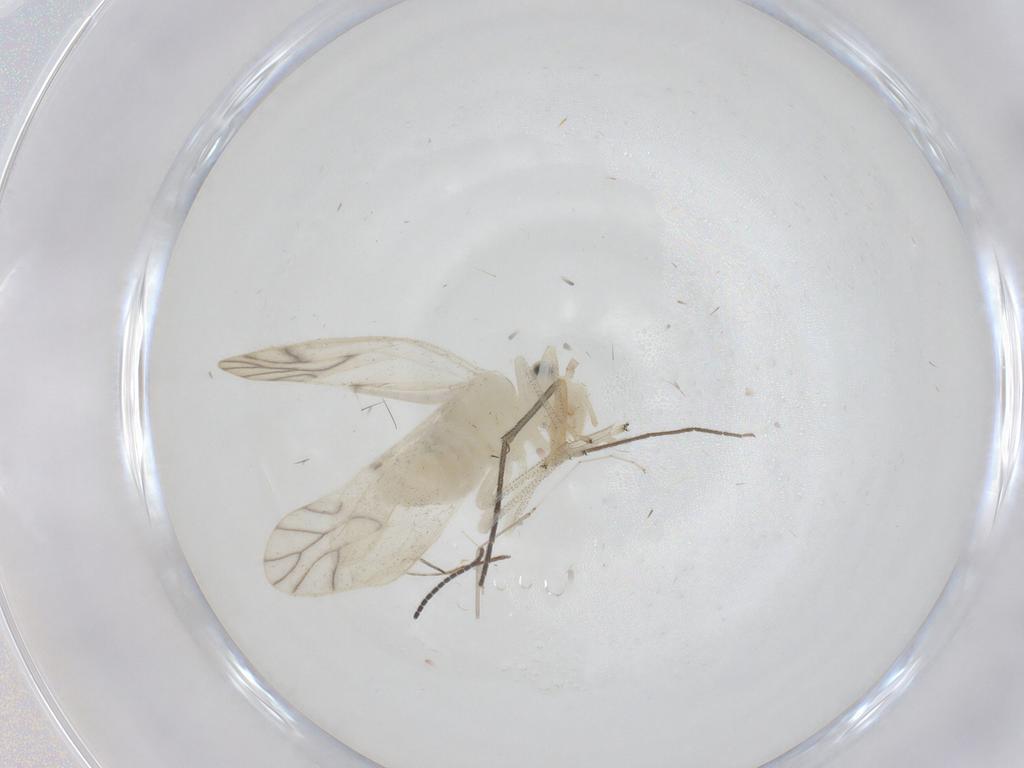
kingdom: Animalia
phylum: Arthropoda
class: Insecta
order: Psocodea
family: Caeciliusidae
